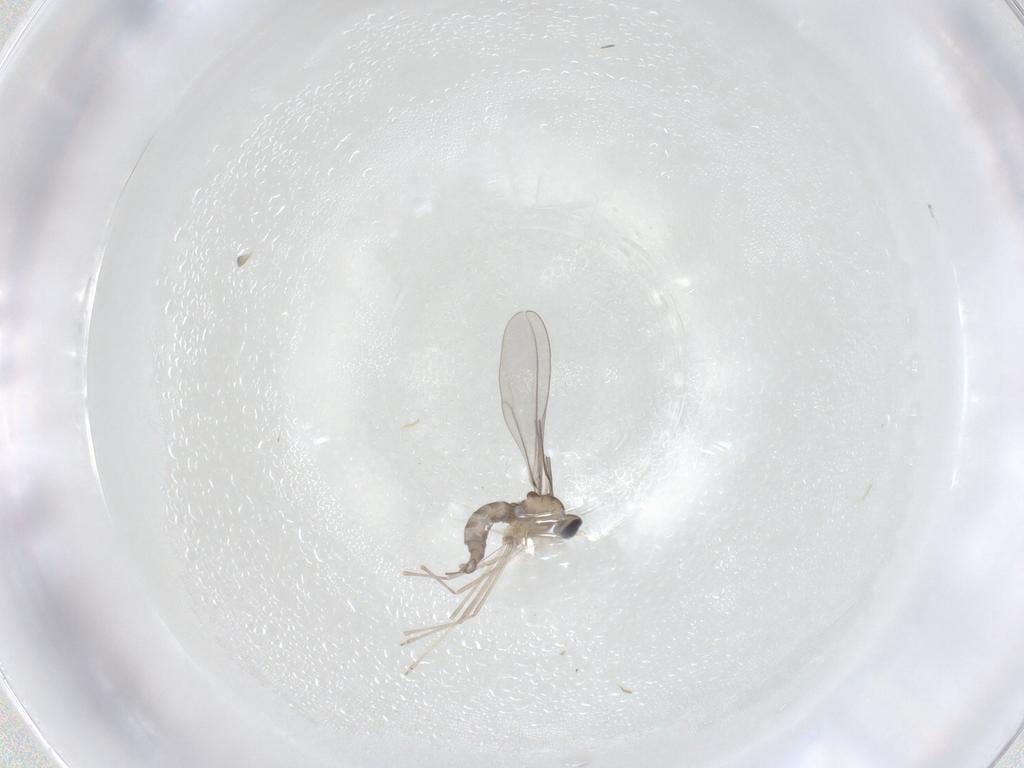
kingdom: Animalia
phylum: Arthropoda
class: Insecta
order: Diptera
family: Cecidomyiidae
